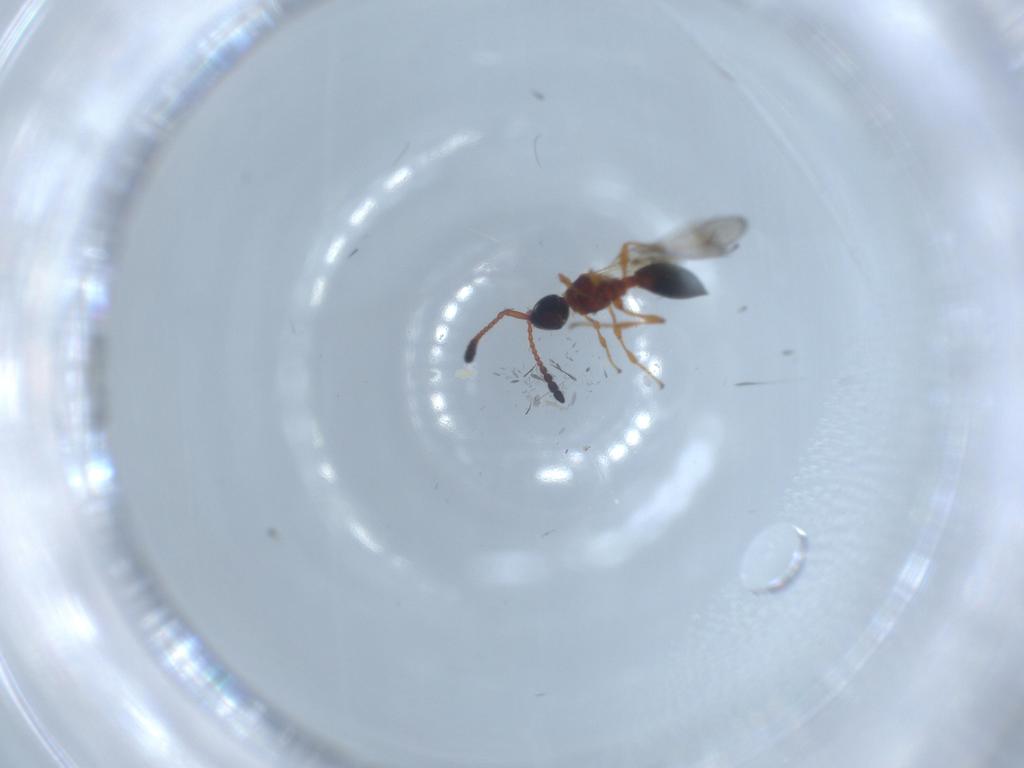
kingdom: Animalia
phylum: Arthropoda
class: Insecta
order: Hymenoptera
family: Diapriidae
